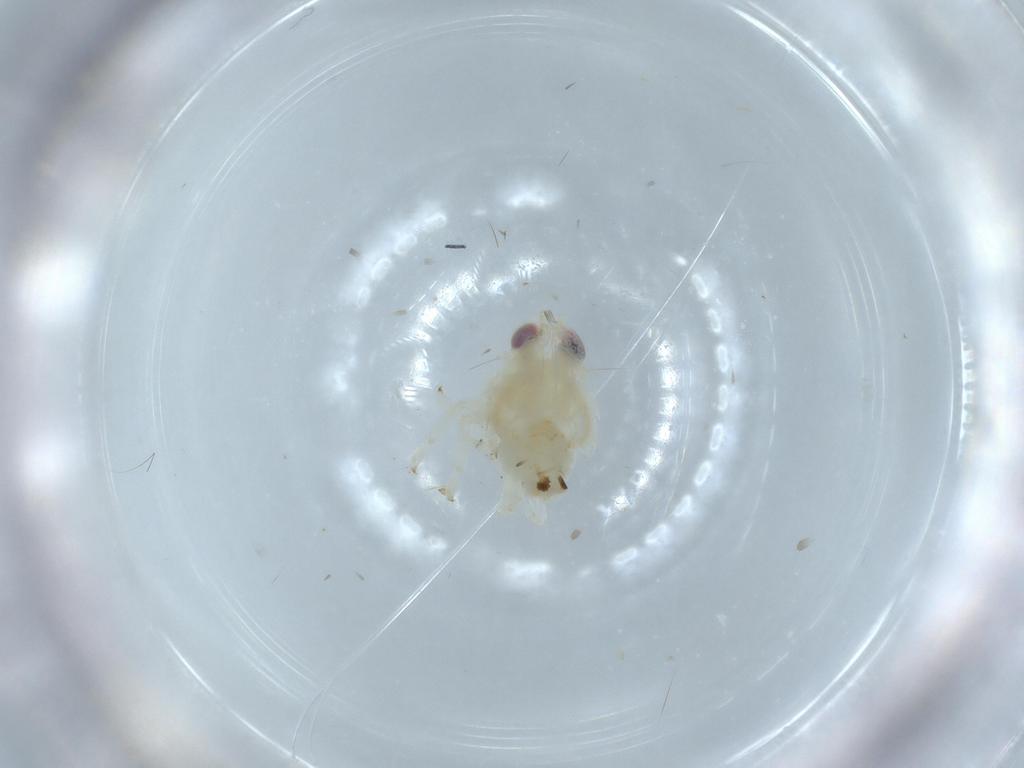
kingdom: Animalia
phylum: Arthropoda
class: Insecta
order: Hemiptera
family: Nogodinidae
